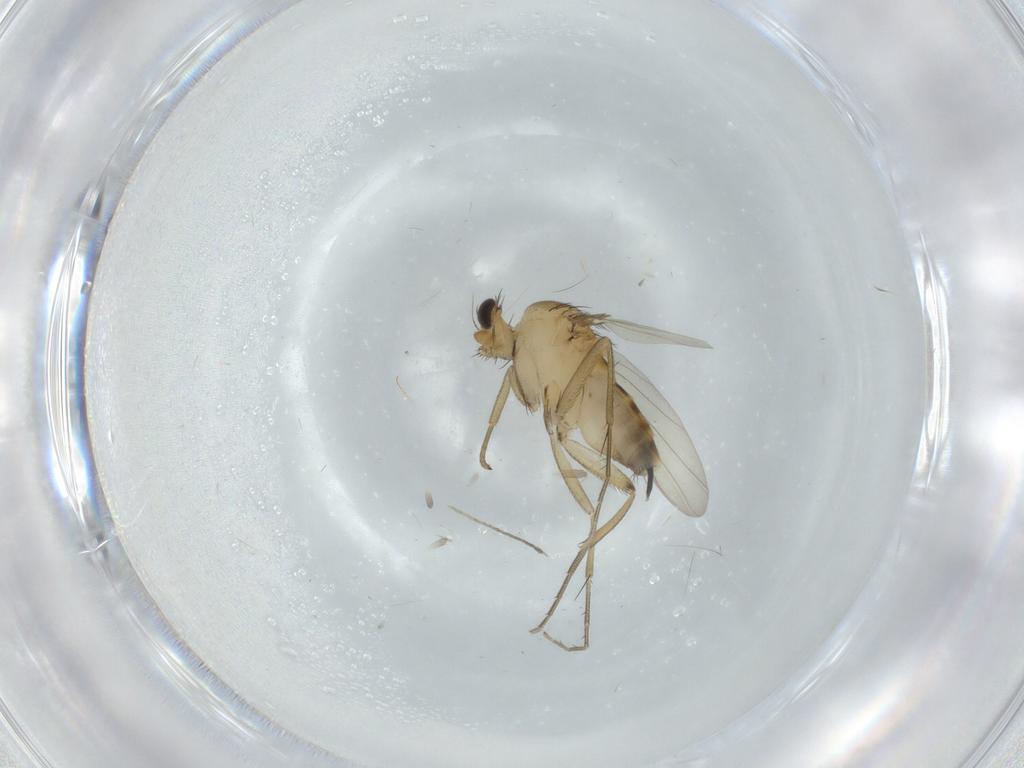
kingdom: Animalia
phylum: Arthropoda
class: Insecta
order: Diptera
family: Phoridae
